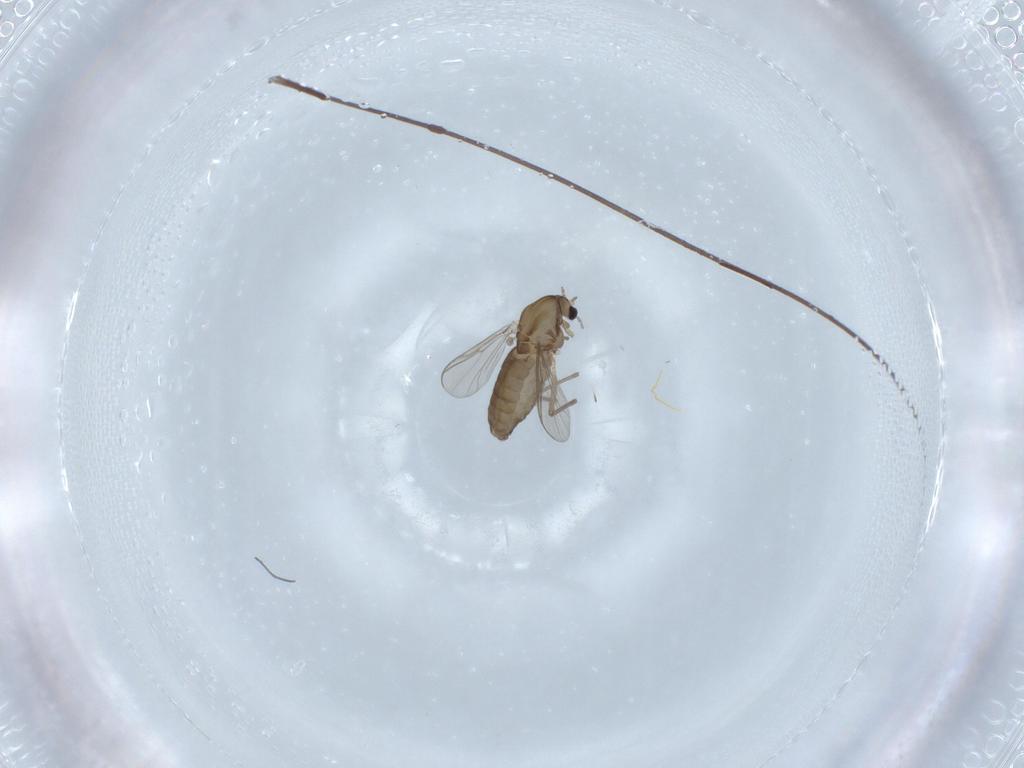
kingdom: Animalia
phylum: Arthropoda
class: Insecta
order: Diptera
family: Chironomidae
